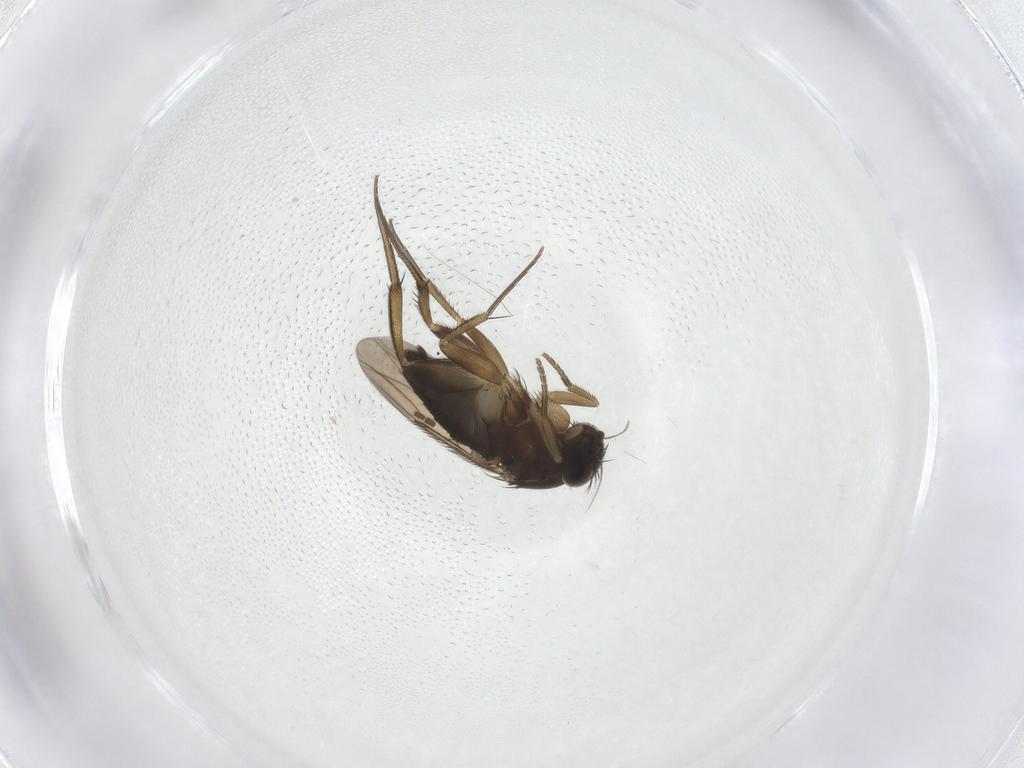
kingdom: Animalia
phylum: Arthropoda
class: Insecta
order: Diptera
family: Phoridae
